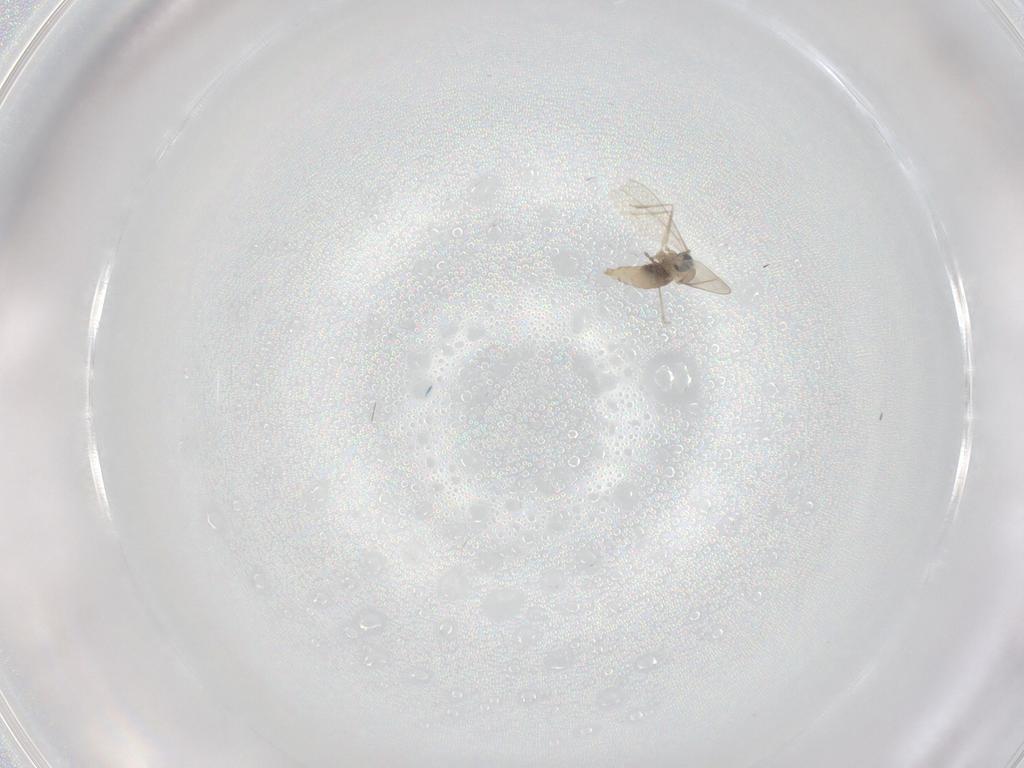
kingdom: Animalia
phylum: Arthropoda
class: Insecta
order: Diptera
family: Cecidomyiidae
